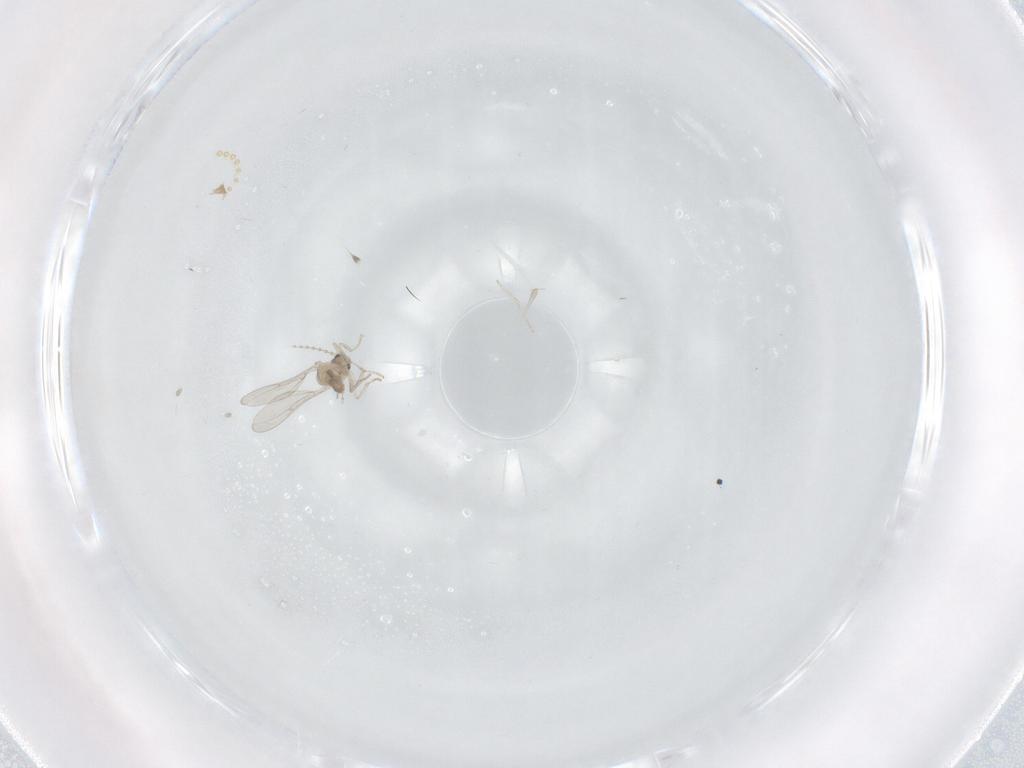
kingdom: Animalia
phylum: Arthropoda
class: Insecta
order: Diptera
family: Psychodidae
